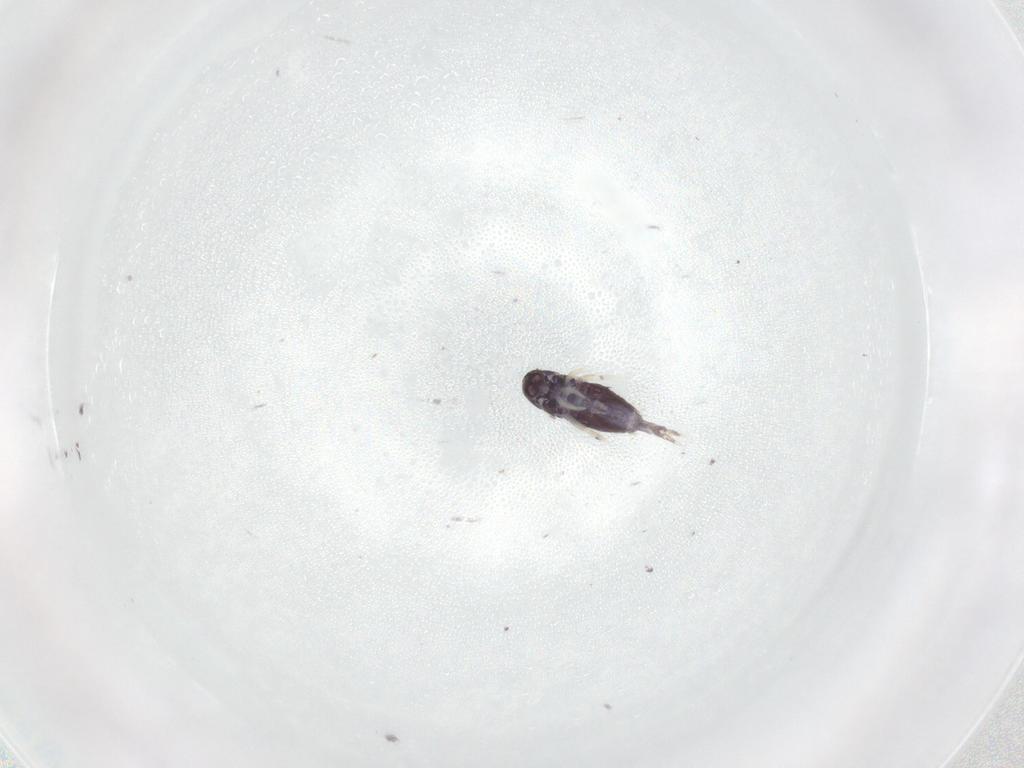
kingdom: Animalia
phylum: Arthropoda
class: Collembola
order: Entomobryomorpha
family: Entomobryidae
